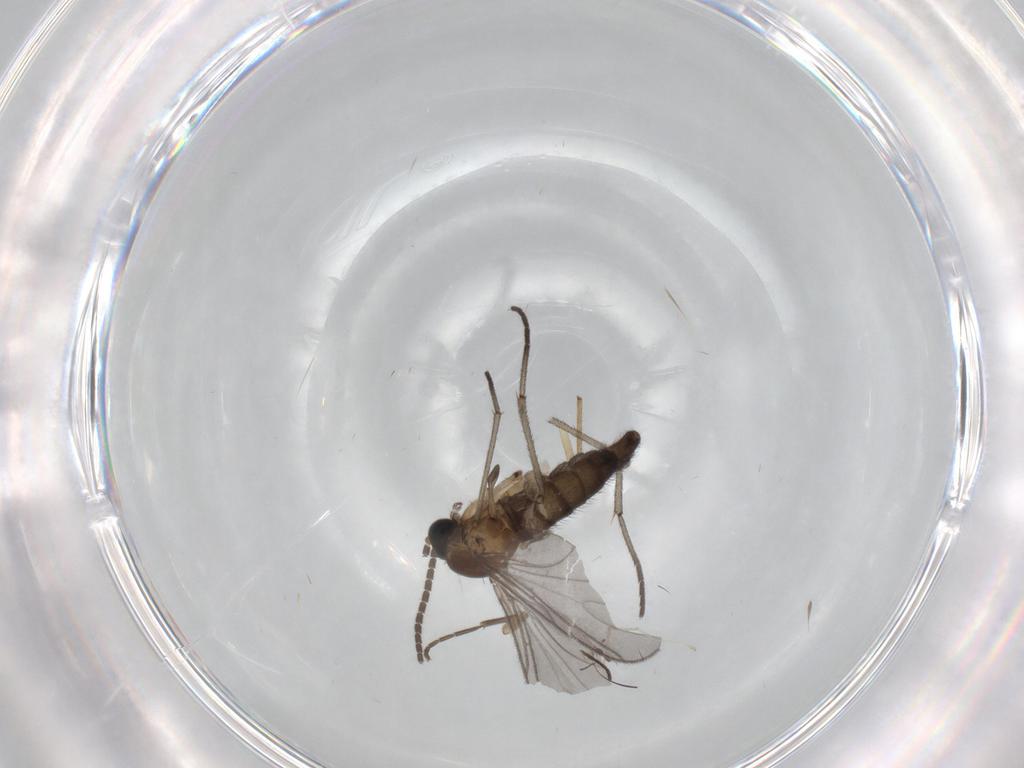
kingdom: Animalia
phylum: Arthropoda
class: Insecta
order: Diptera
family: Sciaridae
